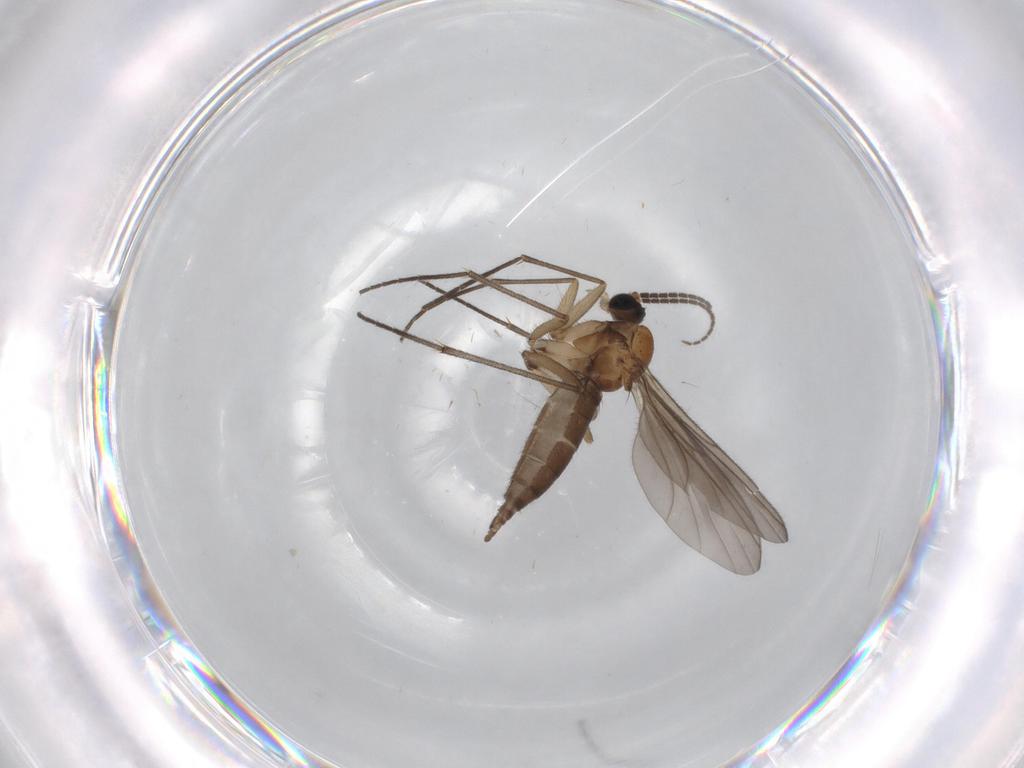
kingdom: Animalia
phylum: Arthropoda
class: Insecta
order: Diptera
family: Sciaridae
